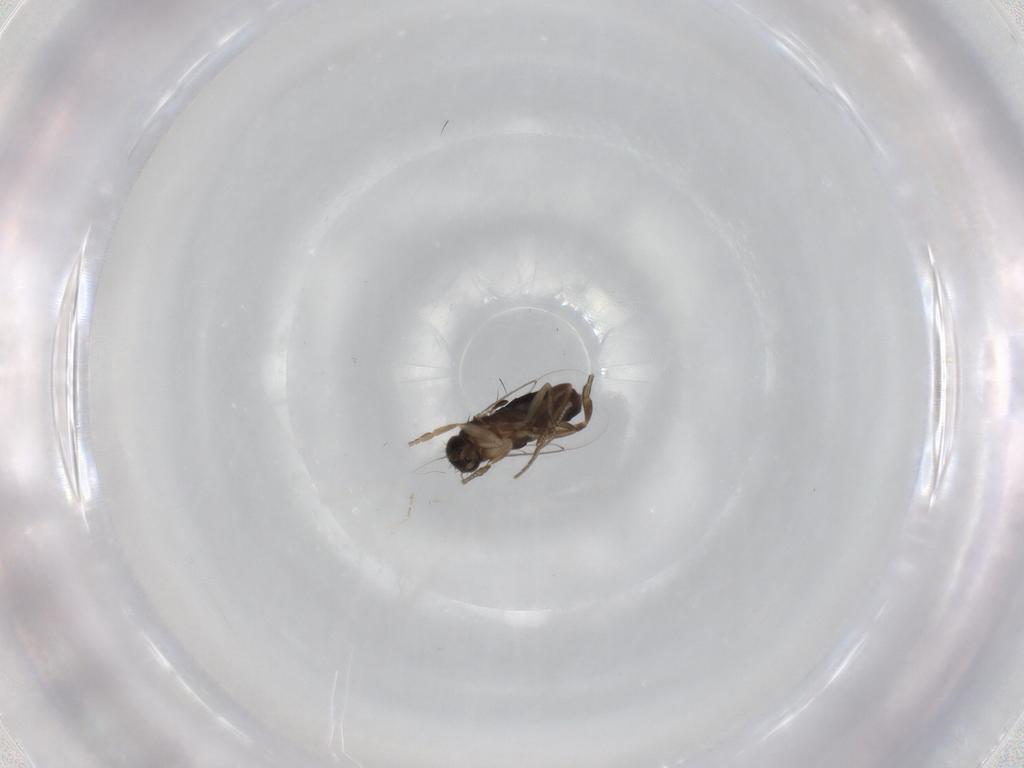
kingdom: Animalia
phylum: Arthropoda
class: Insecta
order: Diptera
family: Phoridae
